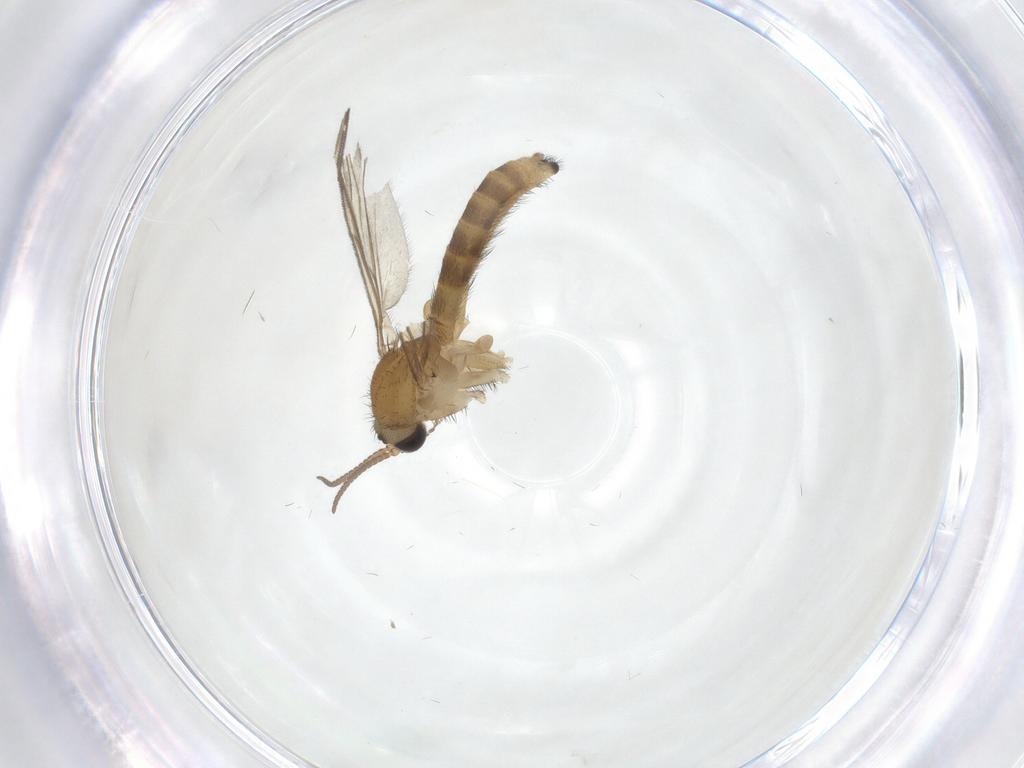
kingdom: Animalia
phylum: Arthropoda
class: Insecta
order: Diptera
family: Keroplatidae
